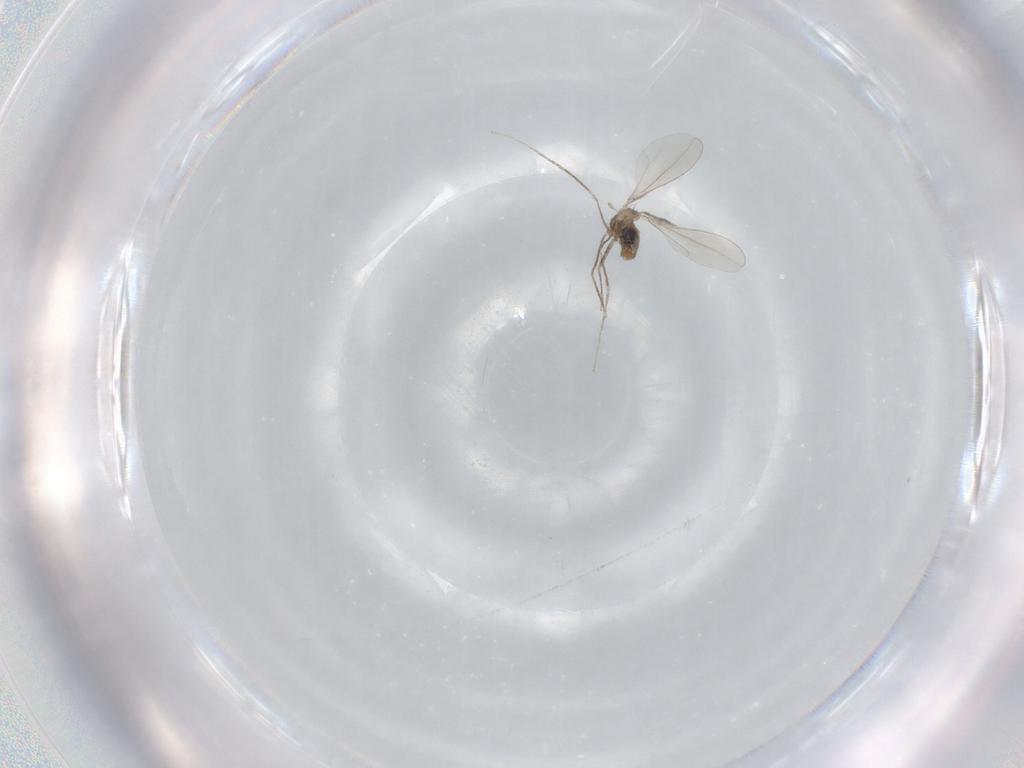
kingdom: Animalia
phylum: Arthropoda
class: Insecta
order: Diptera
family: Cecidomyiidae
